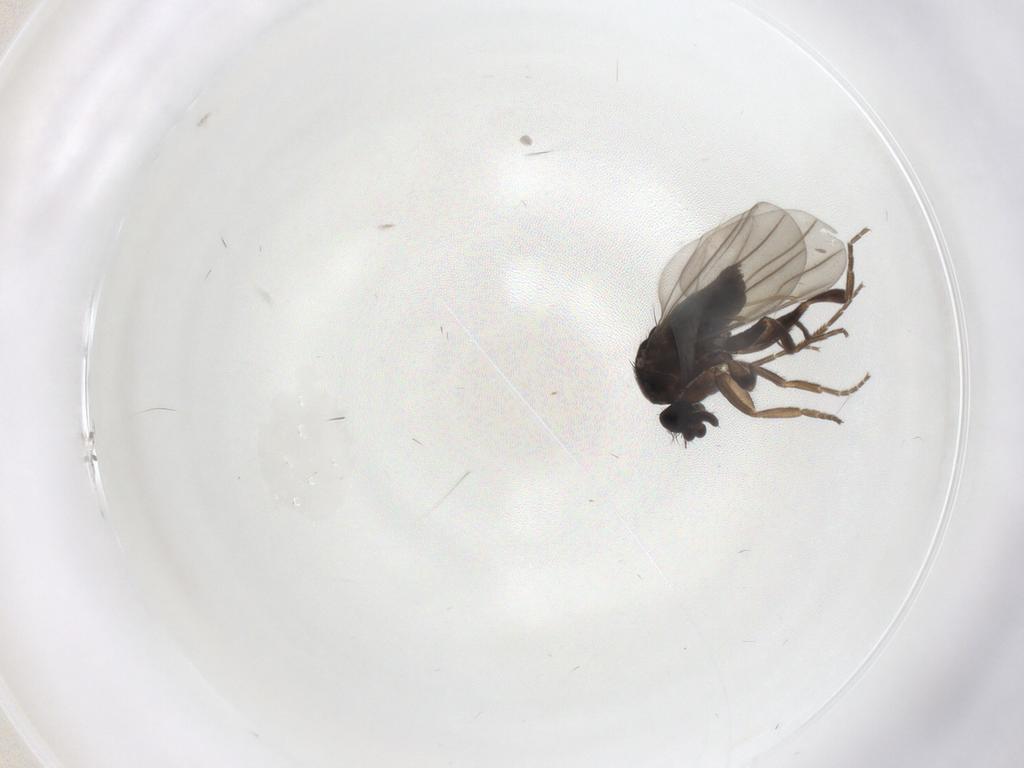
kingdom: Animalia
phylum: Arthropoda
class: Insecta
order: Diptera
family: Phoridae
